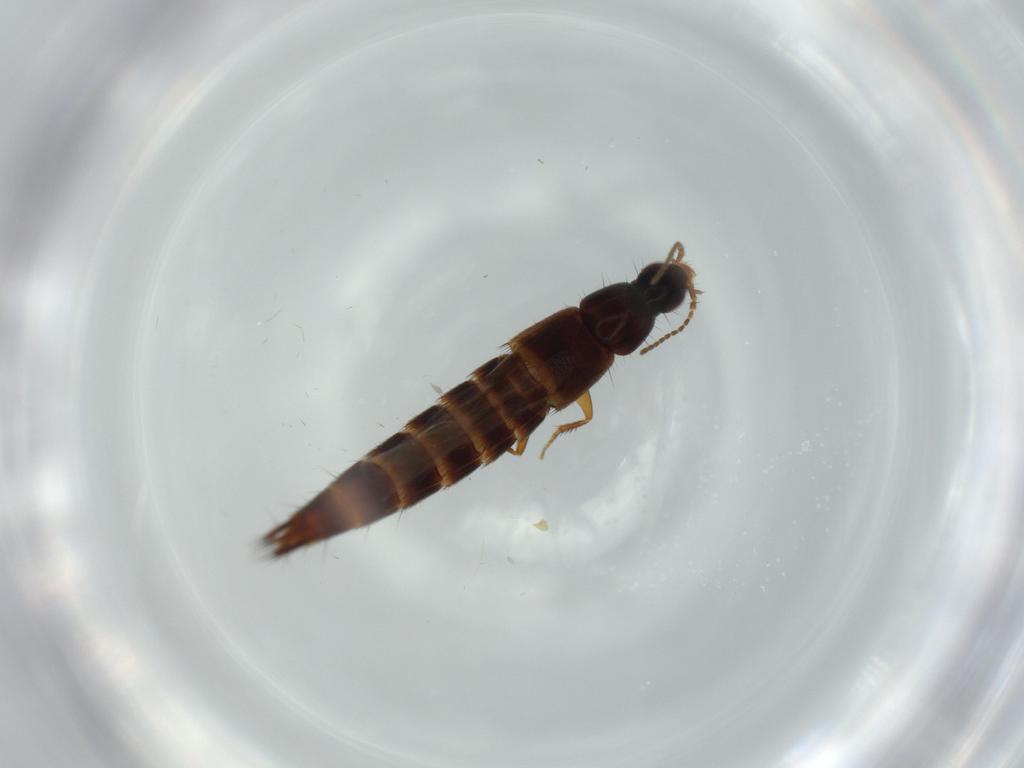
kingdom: Animalia
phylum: Arthropoda
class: Insecta
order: Coleoptera
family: Staphylinidae
